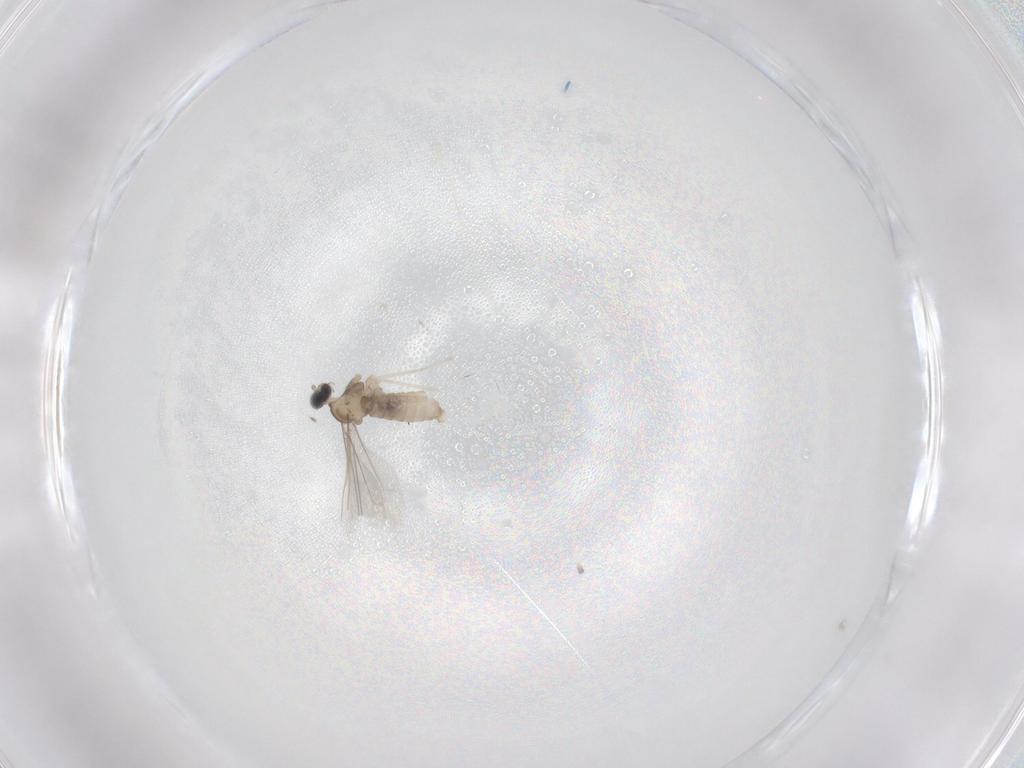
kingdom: Animalia
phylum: Arthropoda
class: Insecta
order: Diptera
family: Cecidomyiidae
